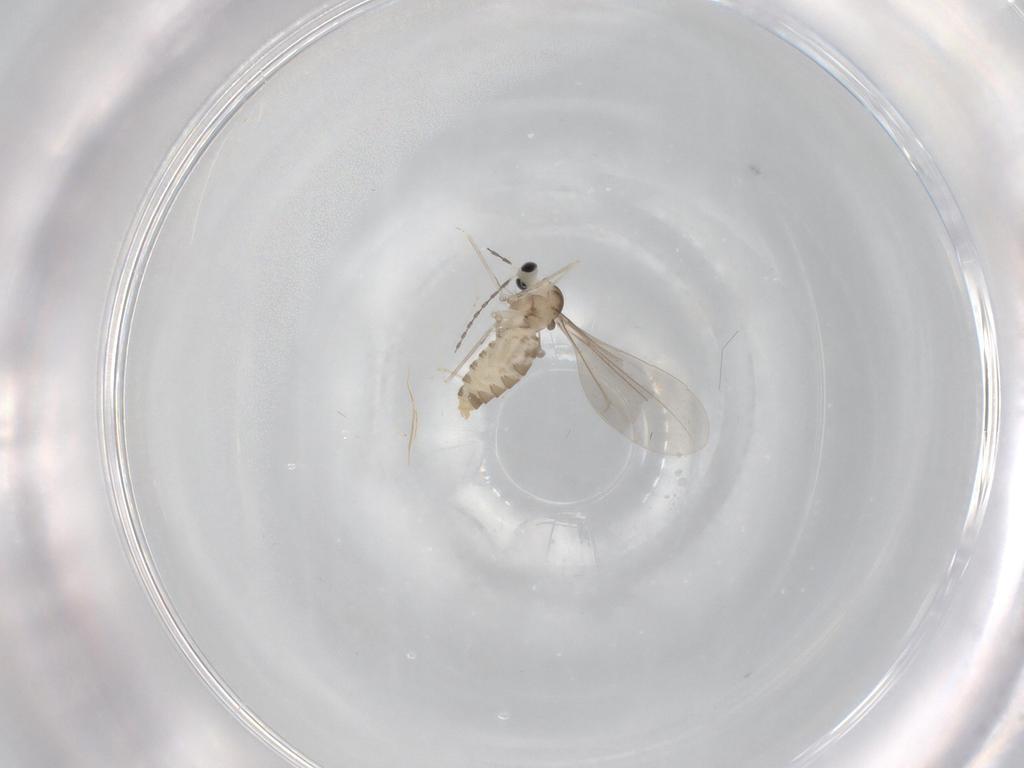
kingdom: Animalia
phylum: Arthropoda
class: Insecta
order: Diptera
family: Cecidomyiidae
